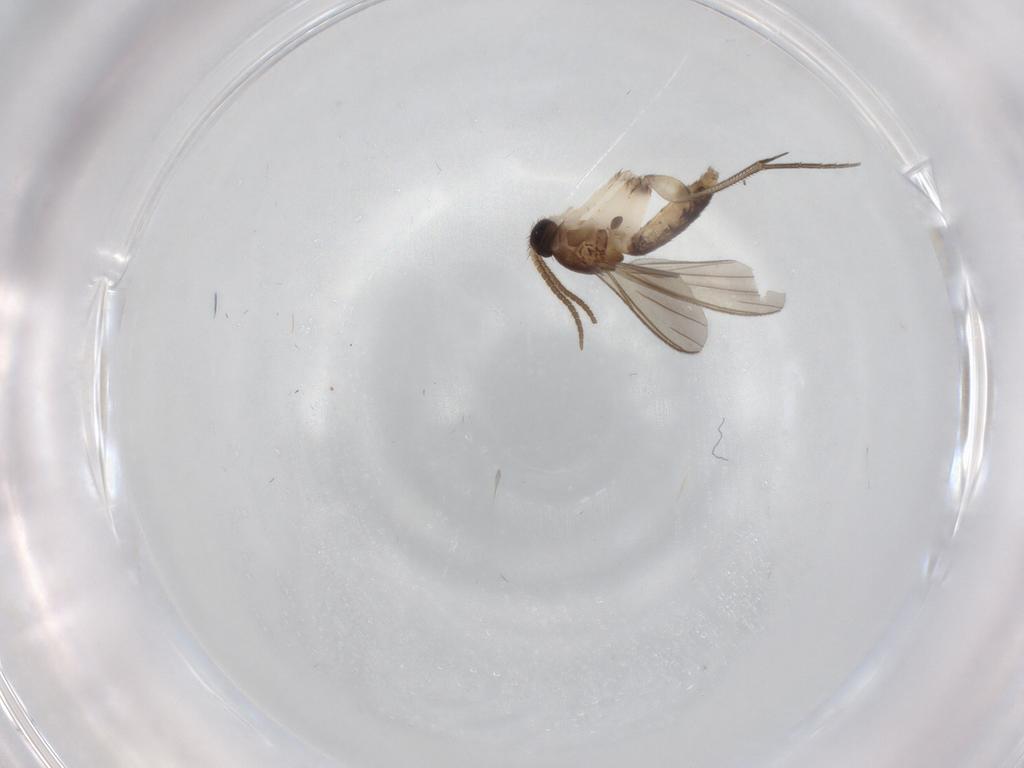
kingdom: Animalia
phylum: Arthropoda
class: Insecta
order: Diptera
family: Mycetophilidae
